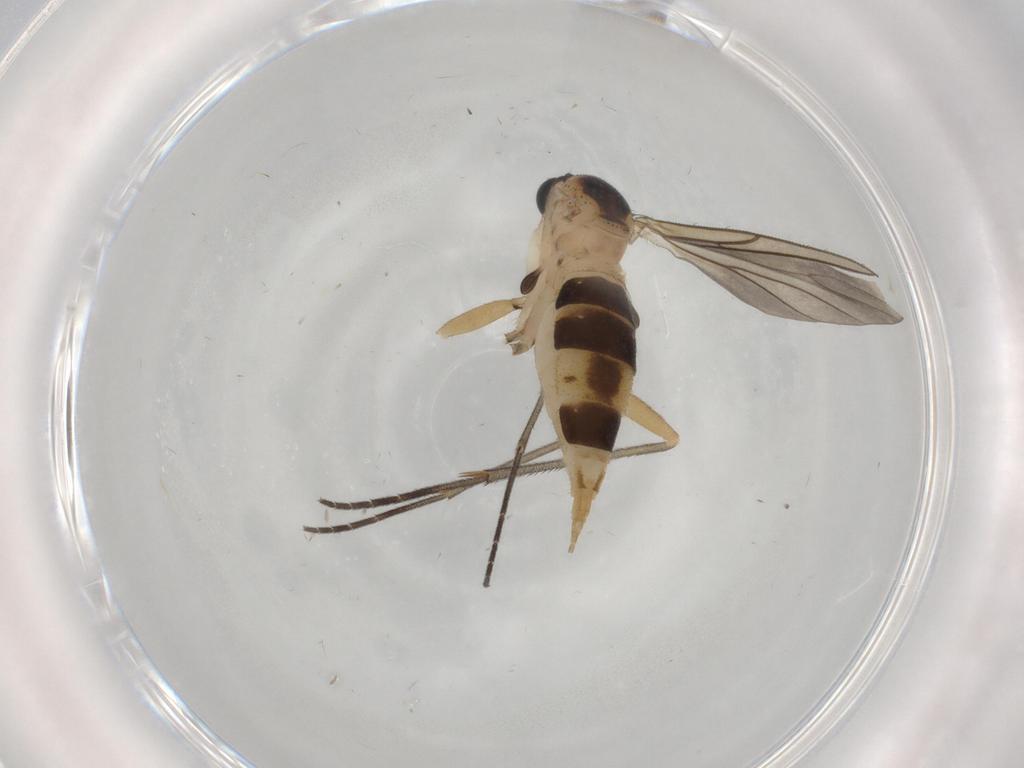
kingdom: Animalia
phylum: Arthropoda
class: Insecta
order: Diptera
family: Sciaridae
